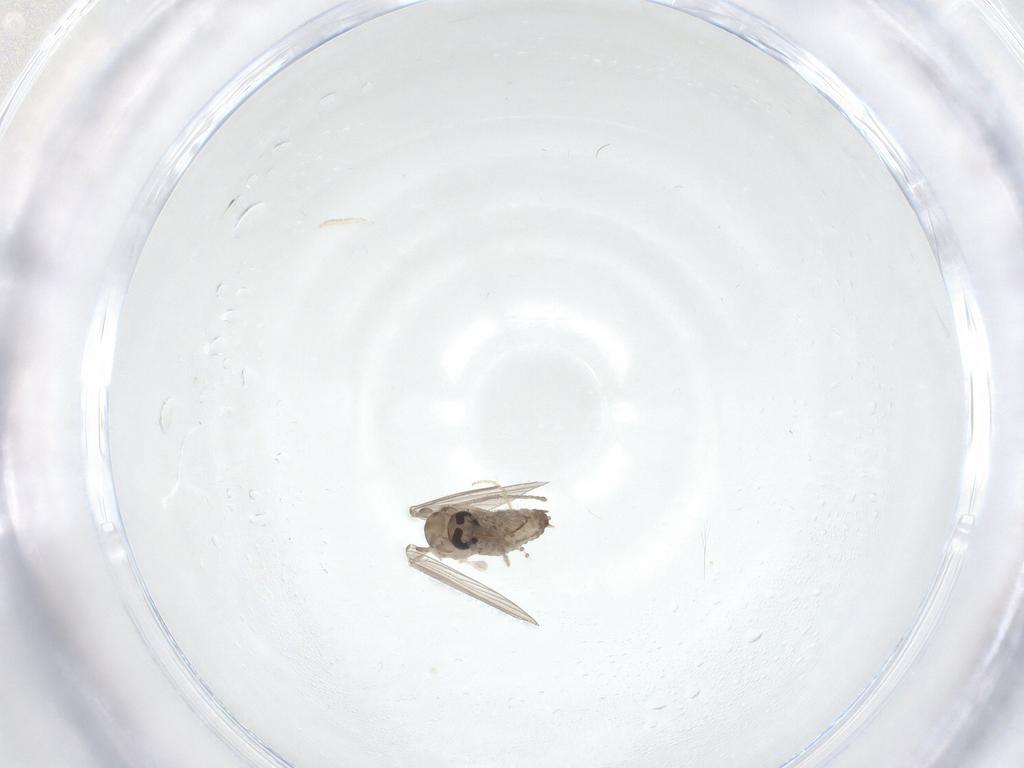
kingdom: Animalia
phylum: Arthropoda
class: Insecta
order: Diptera
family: Psychodidae
